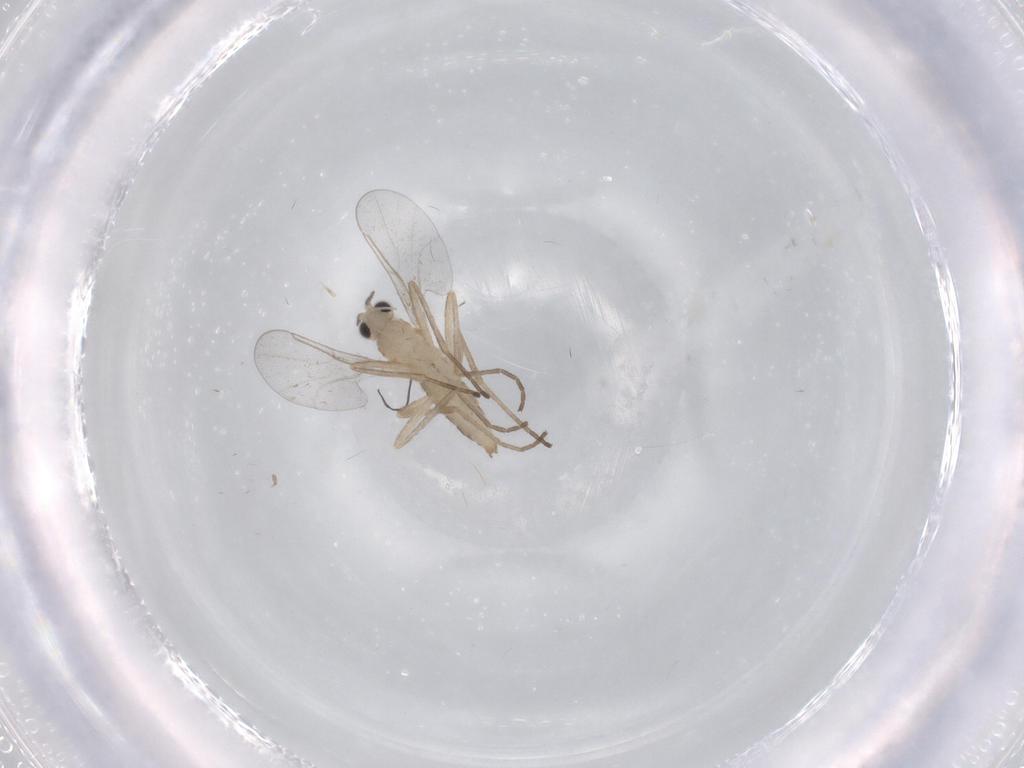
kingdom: Animalia
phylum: Arthropoda
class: Insecta
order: Diptera
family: Cecidomyiidae
